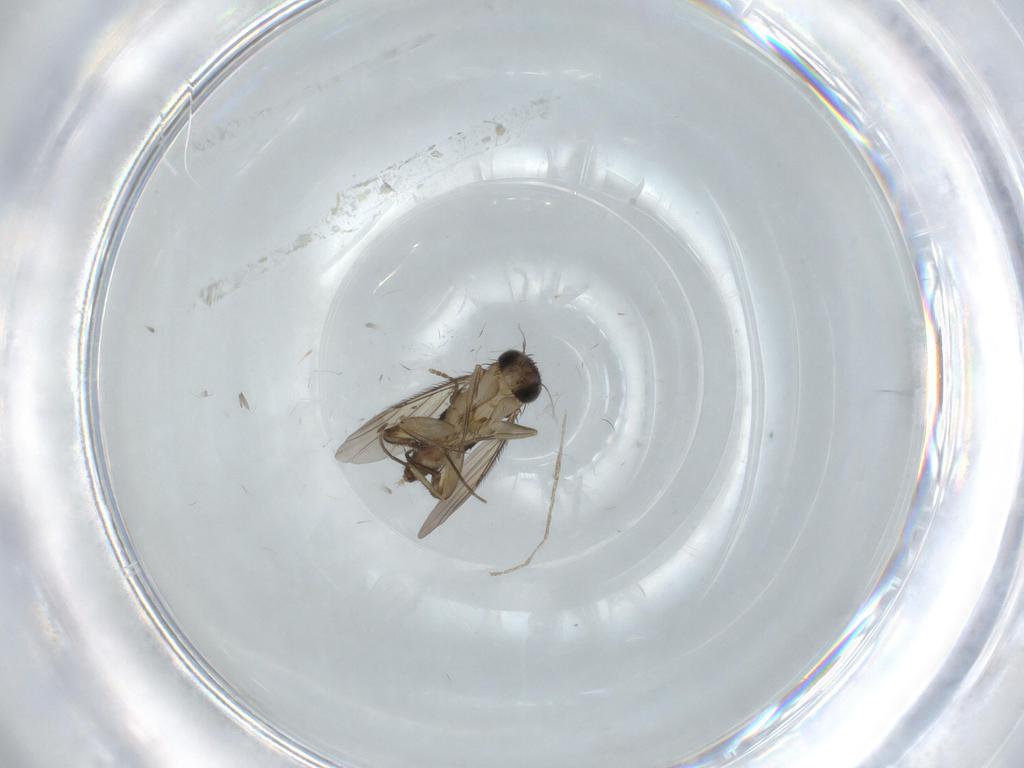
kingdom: Animalia
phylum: Arthropoda
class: Insecta
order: Diptera
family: Phoridae
